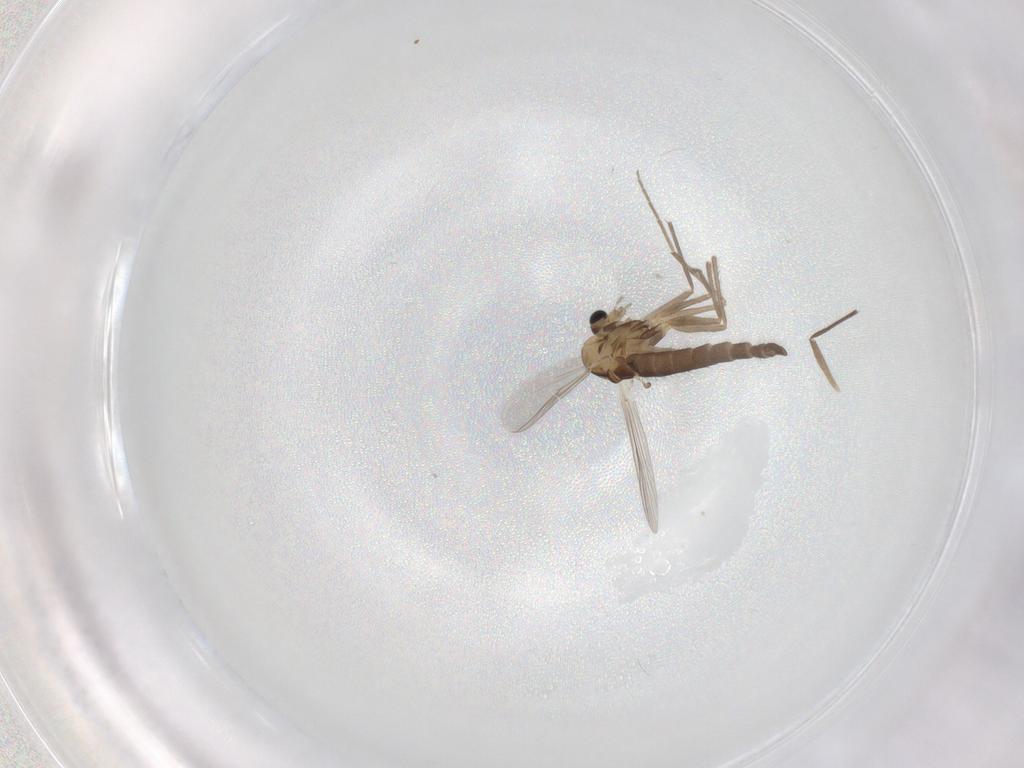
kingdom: Animalia
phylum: Arthropoda
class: Insecta
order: Diptera
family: Chironomidae
